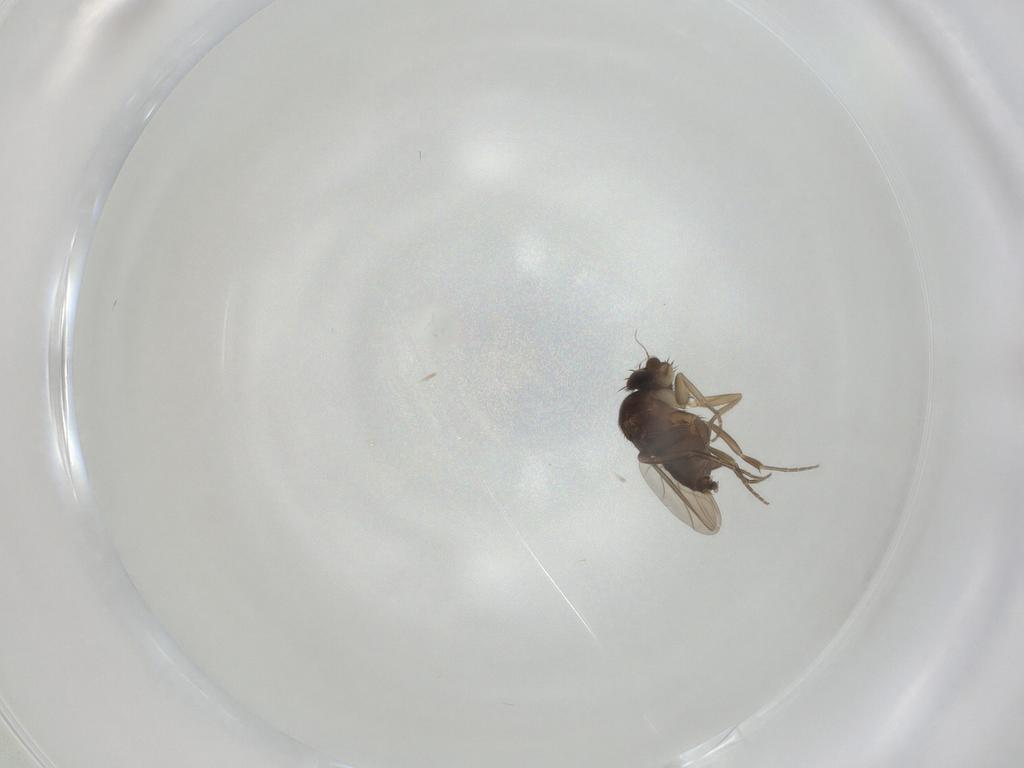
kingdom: Animalia
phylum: Arthropoda
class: Insecta
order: Diptera
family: Phoridae
